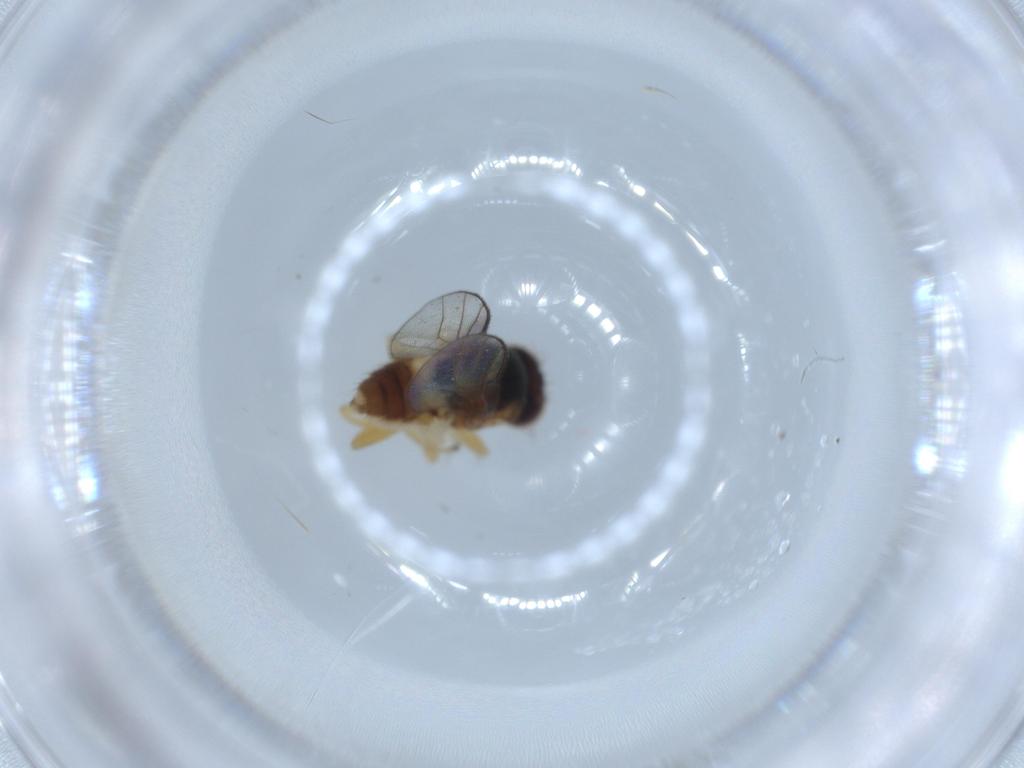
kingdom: Animalia
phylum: Arthropoda
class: Insecta
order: Diptera
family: Chloropidae
